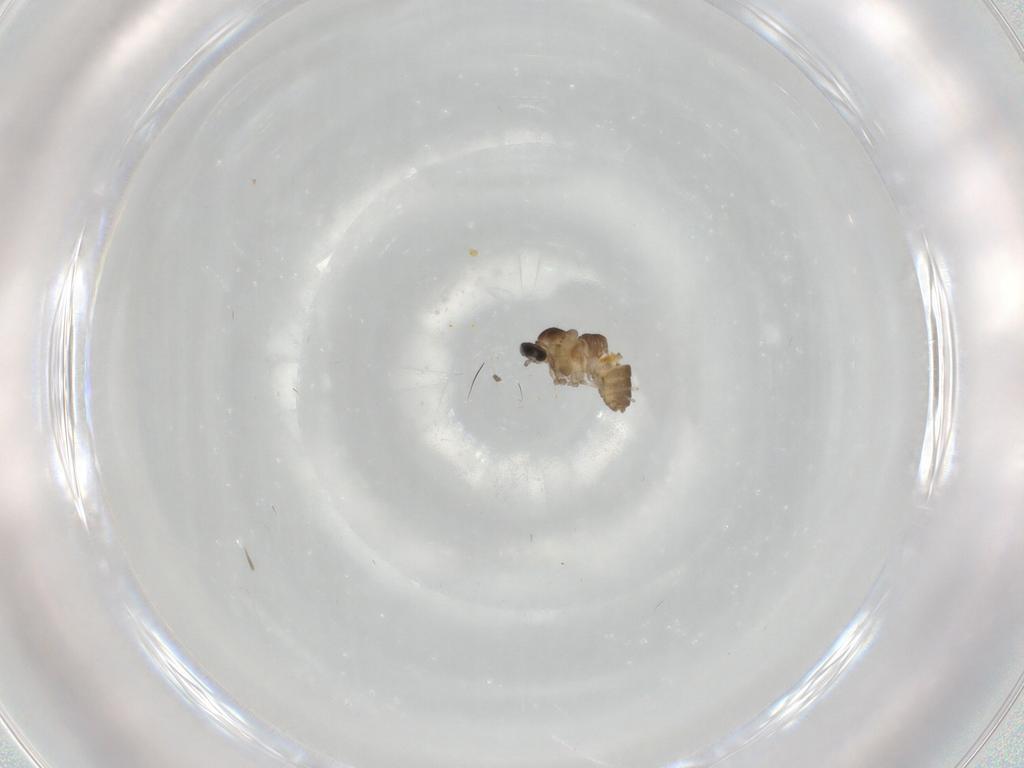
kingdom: Animalia
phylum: Arthropoda
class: Insecta
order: Diptera
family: Cecidomyiidae
